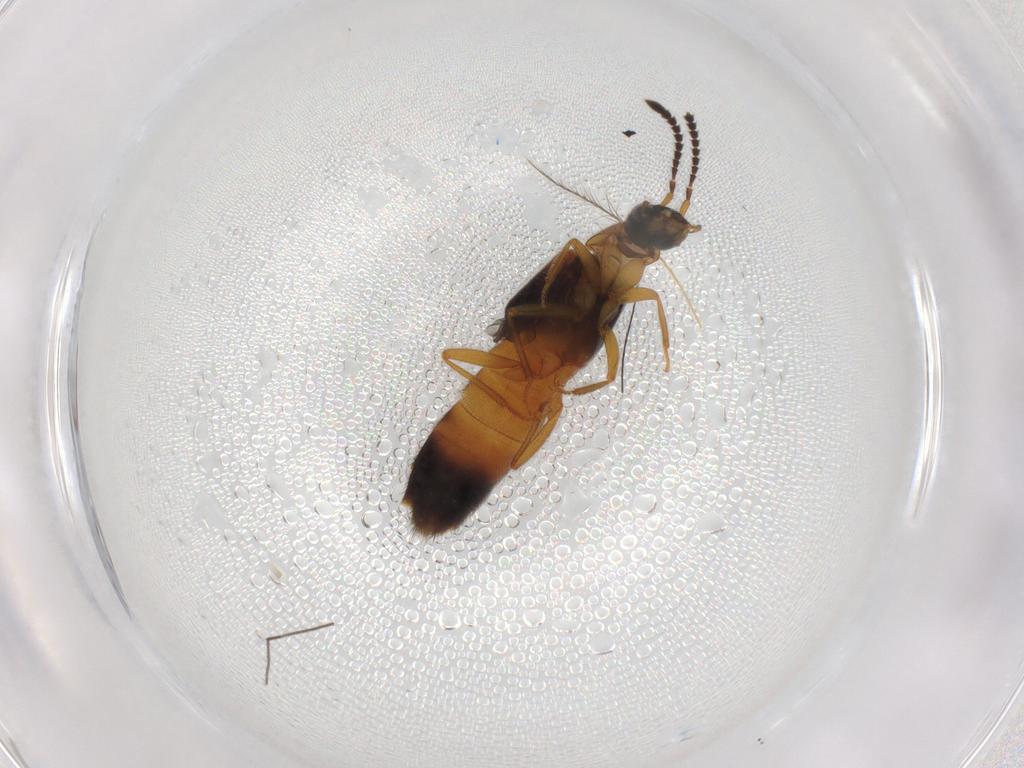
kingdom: Animalia
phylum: Arthropoda
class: Insecta
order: Coleoptera
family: Staphylinidae
